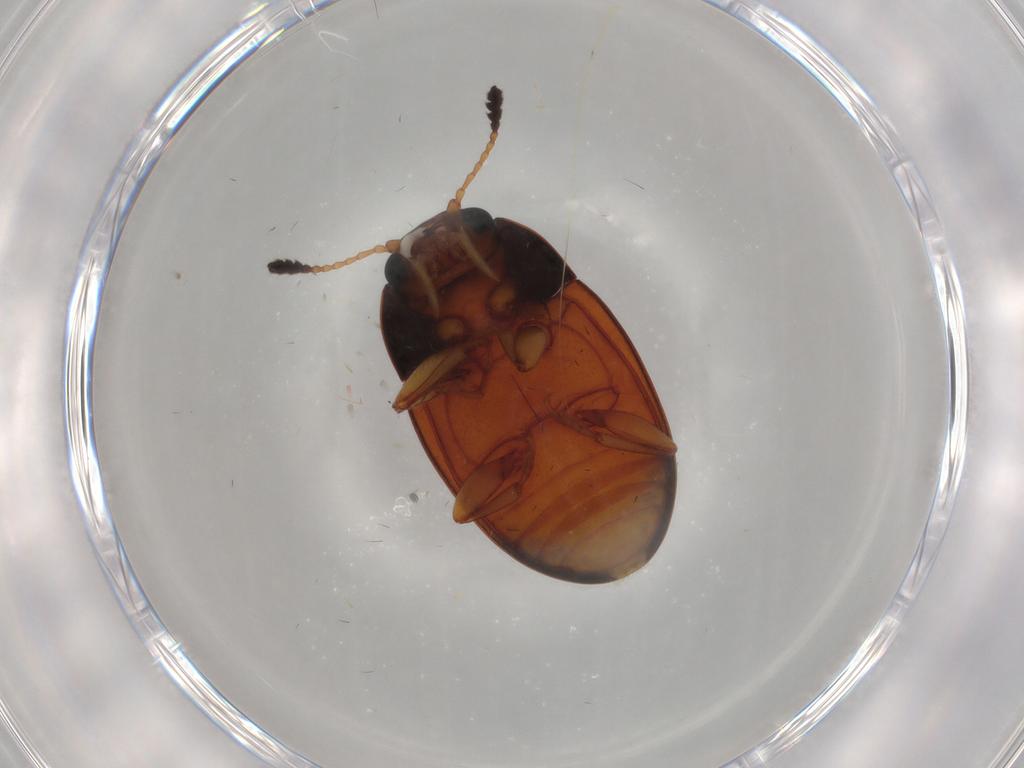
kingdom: Animalia
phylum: Arthropoda
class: Insecta
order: Coleoptera
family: Erotylidae
